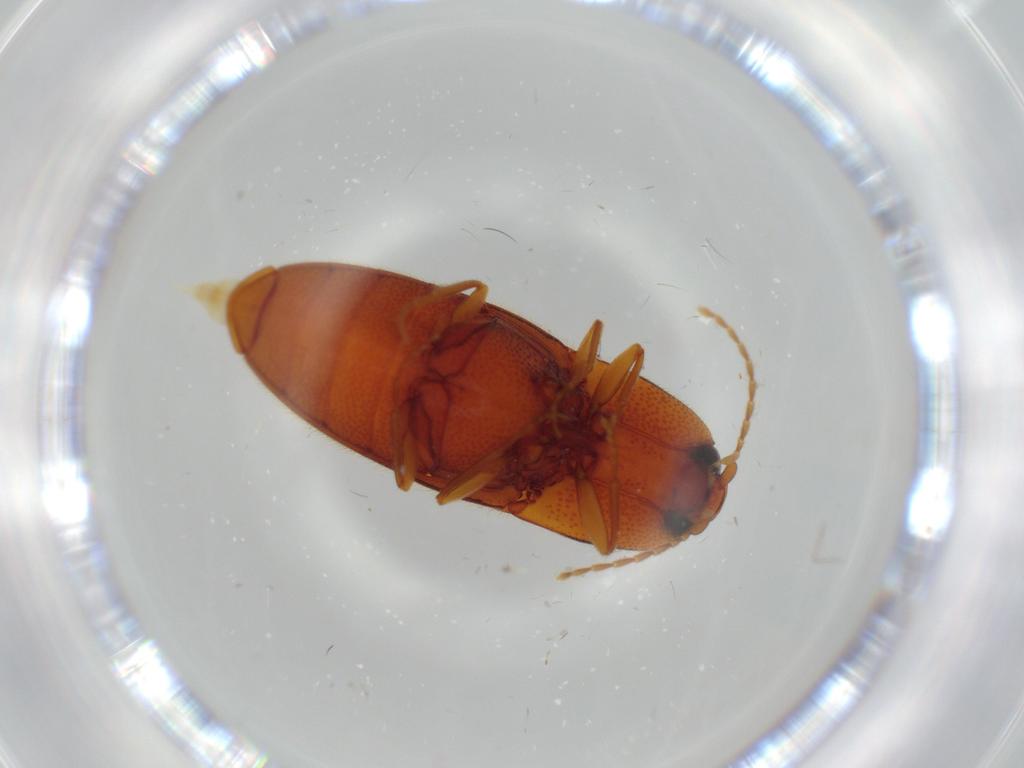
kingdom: Animalia
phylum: Arthropoda
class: Insecta
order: Coleoptera
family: Elateridae
